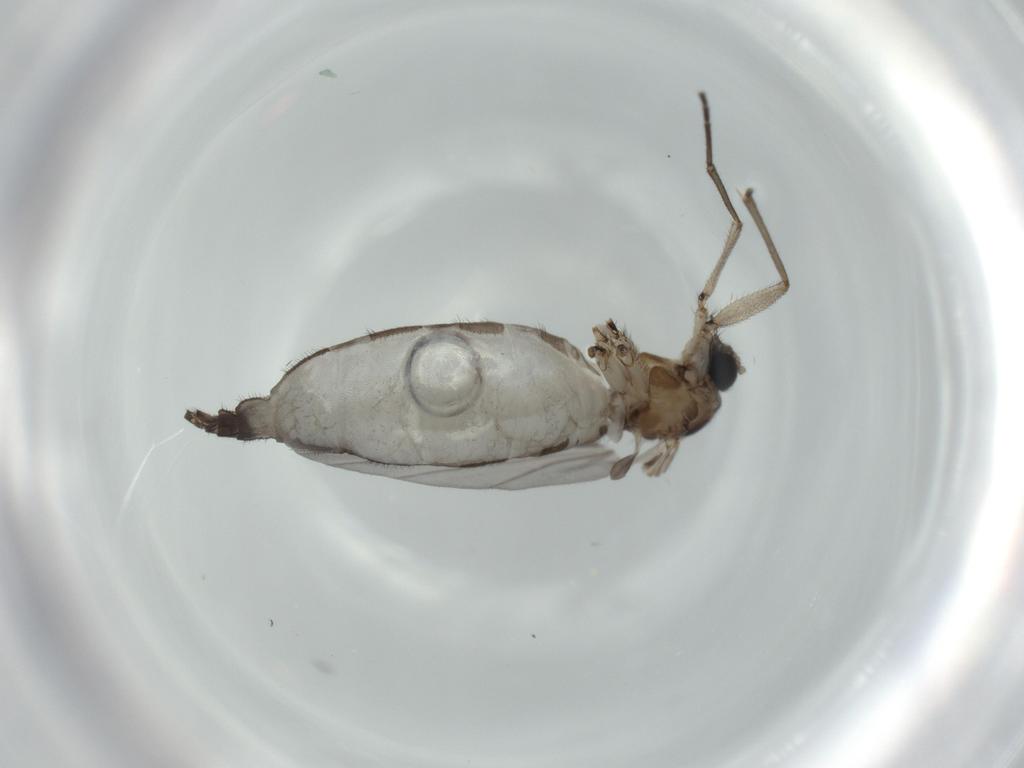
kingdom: Animalia
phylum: Arthropoda
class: Insecta
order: Diptera
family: Sciaridae
